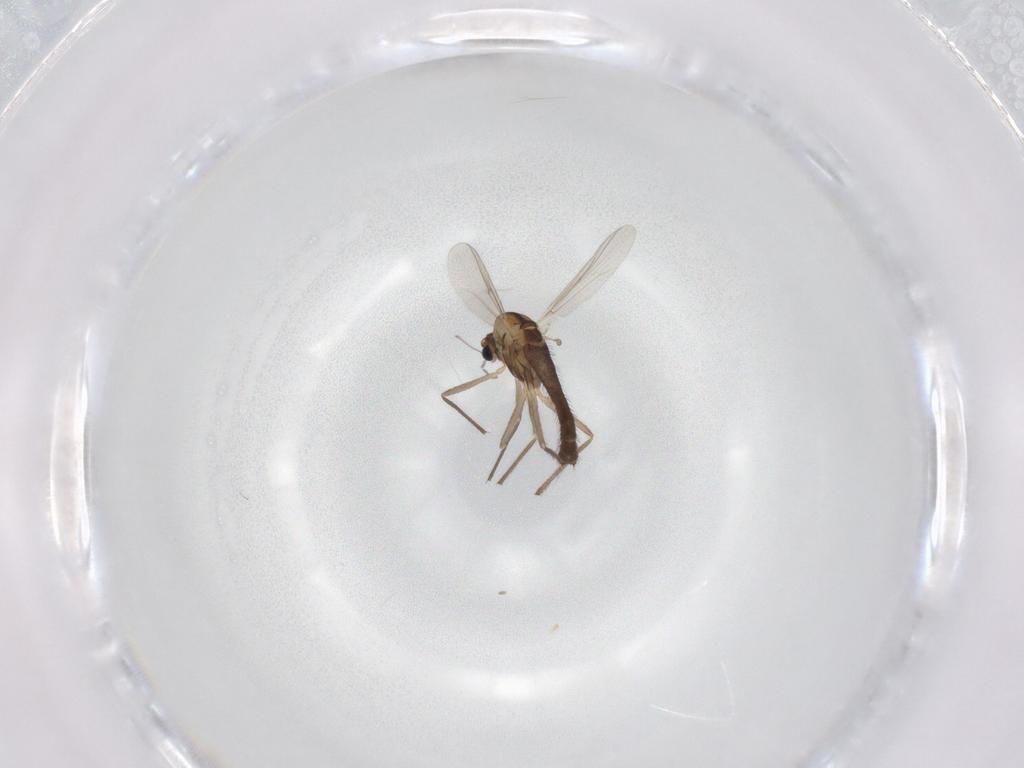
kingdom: Animalia
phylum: Arthropoda
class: Insecta
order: Diptera
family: Chironomidae
